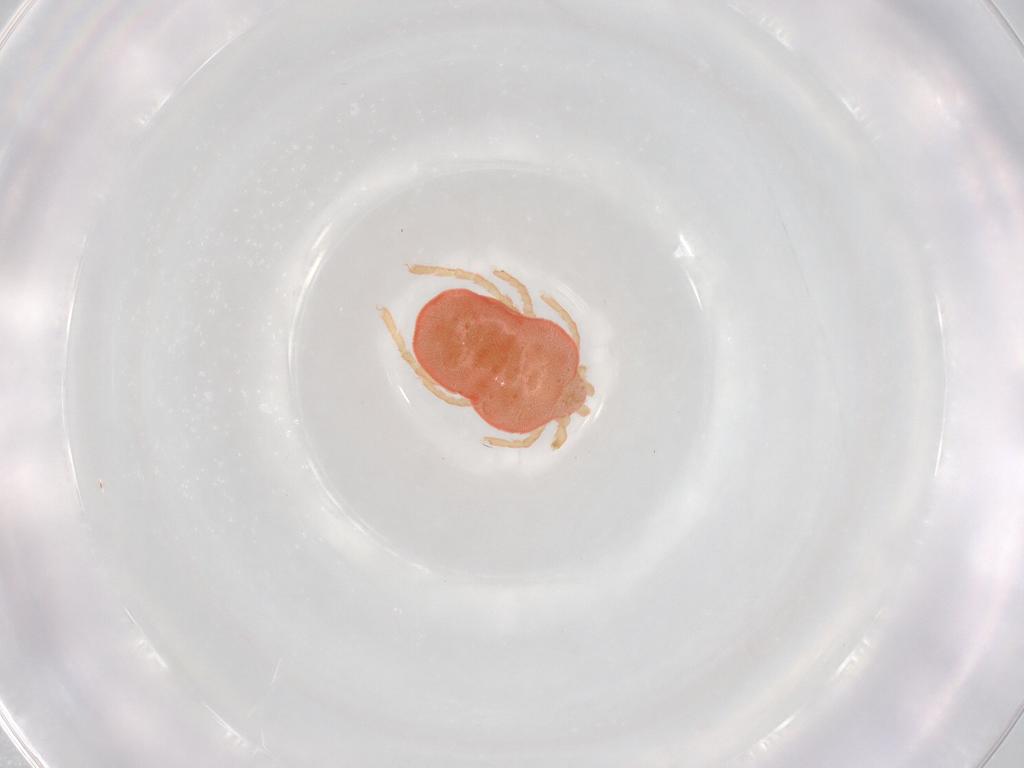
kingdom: Animalia
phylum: Arthropoda
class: Arachnida
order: Trombidiformes
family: Microtrombidiidae
